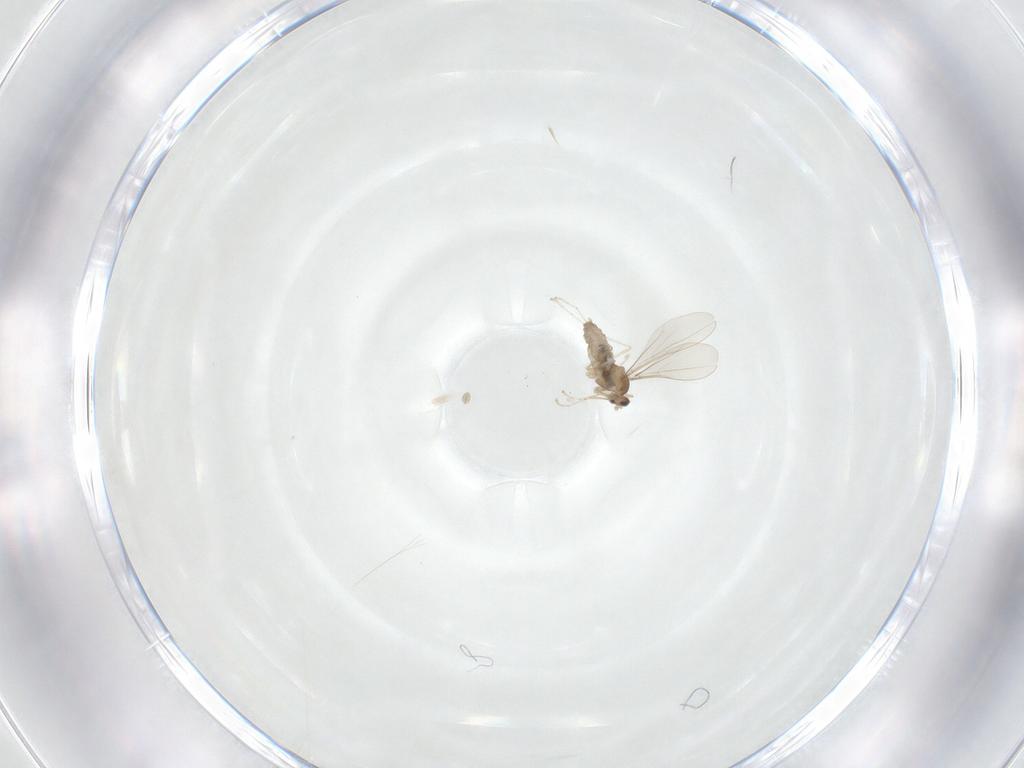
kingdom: Animalia
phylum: Arthropoda
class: Insecta
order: Diptera
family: Cecidomyiidae
